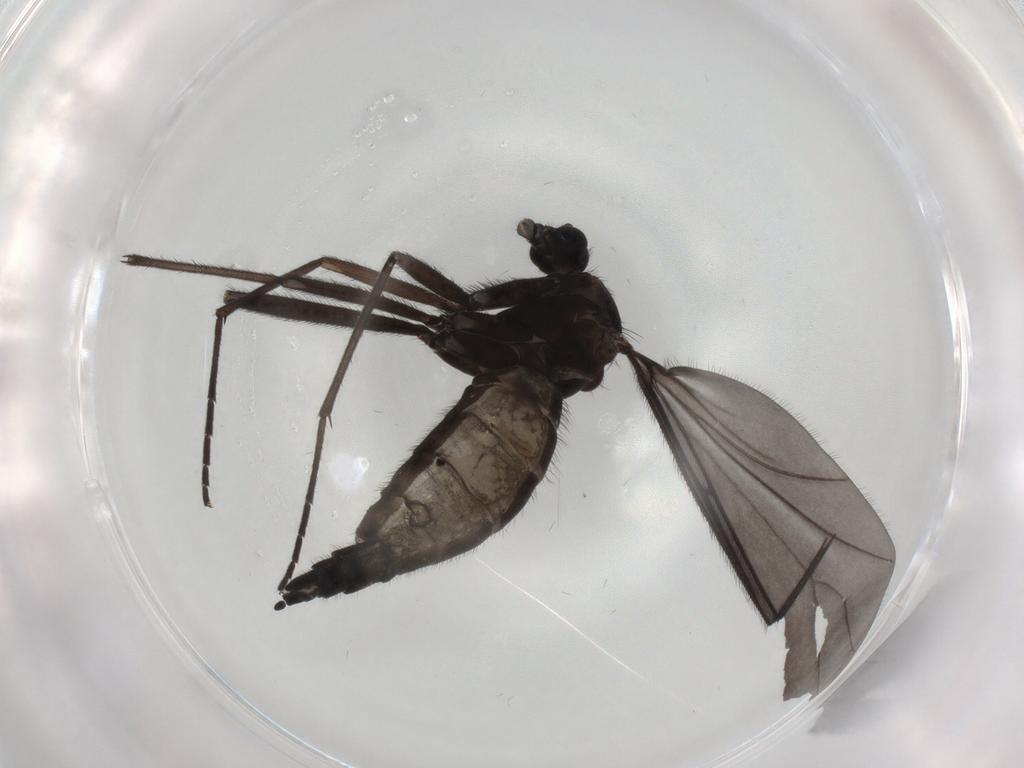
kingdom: Animalia
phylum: Arthropoda
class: Insecta
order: Diptera
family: Sciaridae
